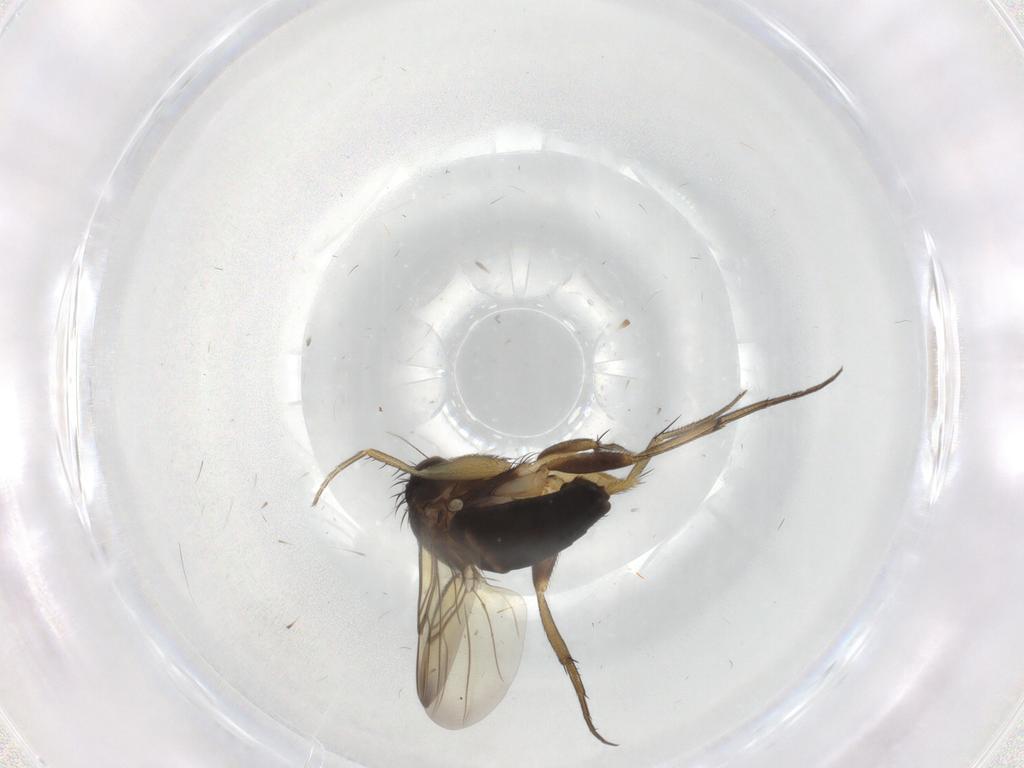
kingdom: Animalia
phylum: Arthropoda
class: Insecta
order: Diptera
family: Phoridae
